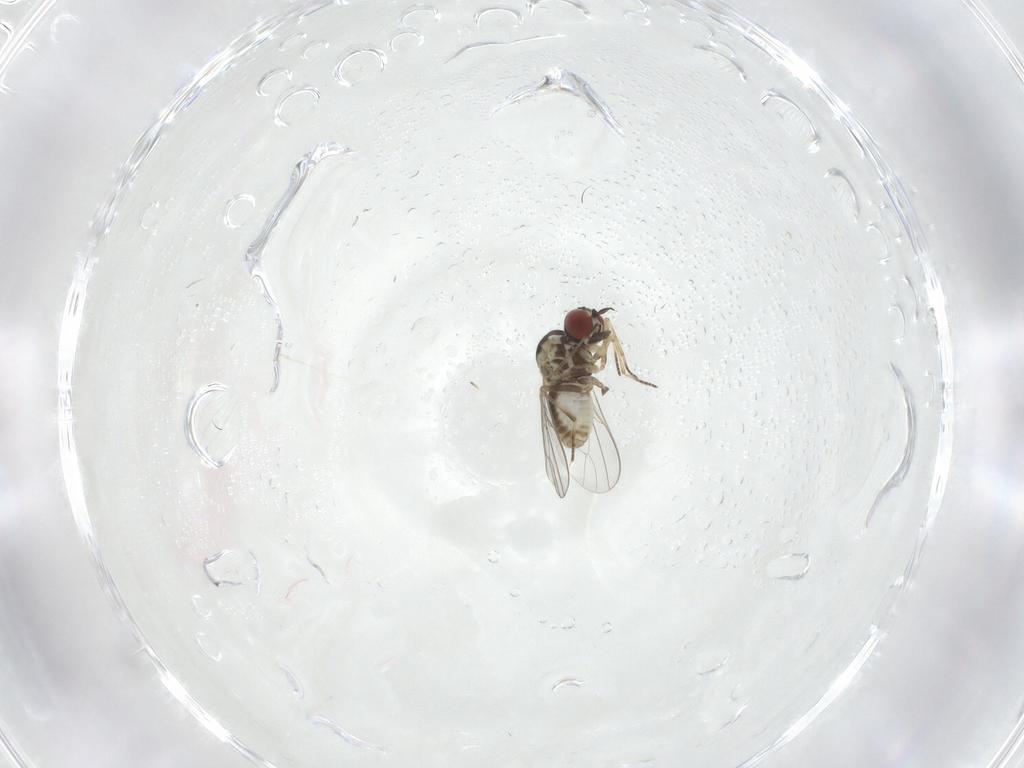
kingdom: Animalia
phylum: Arthropoda
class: Insecta
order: Diptera
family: Mythicomyiidae
